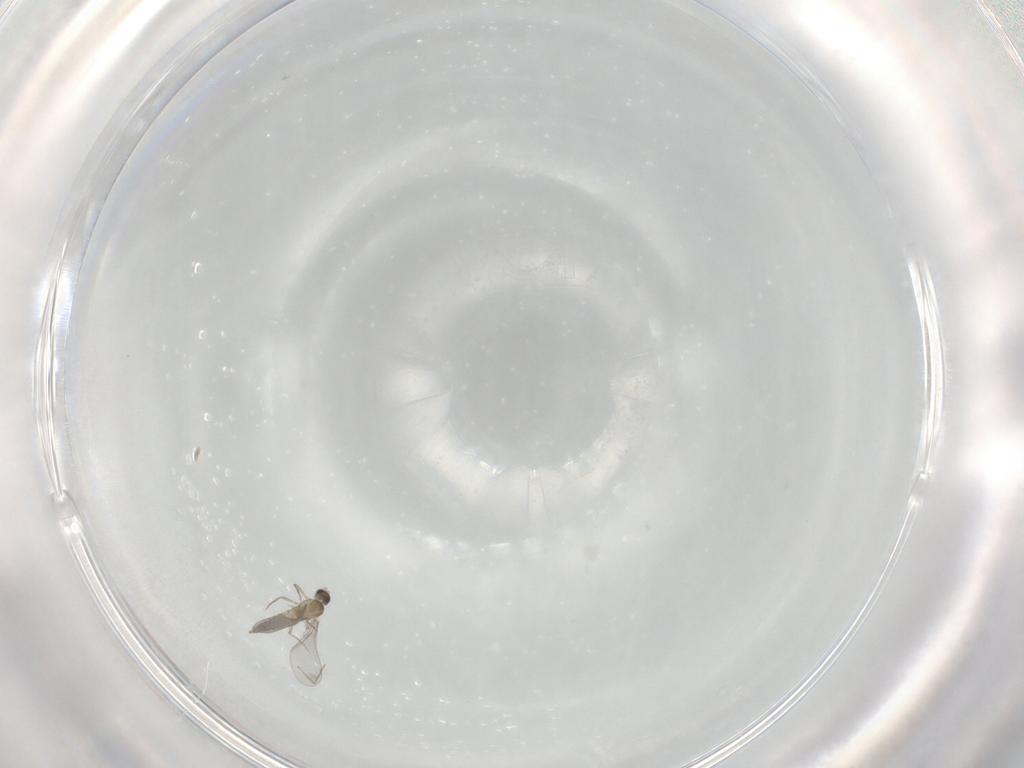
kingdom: Animalia
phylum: Arthropoda
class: Insecta
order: Diptera
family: Cecidomyiidae
